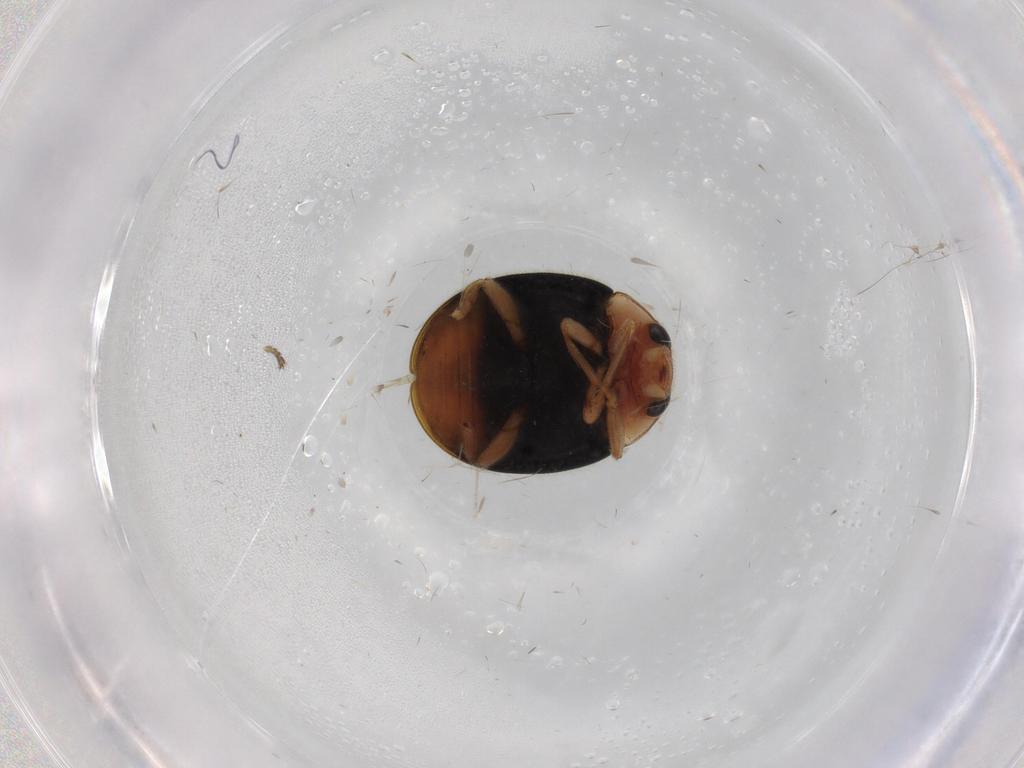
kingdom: Animalia
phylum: Arthropoda
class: Insecta
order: Coleoptera
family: Coccinellidae
